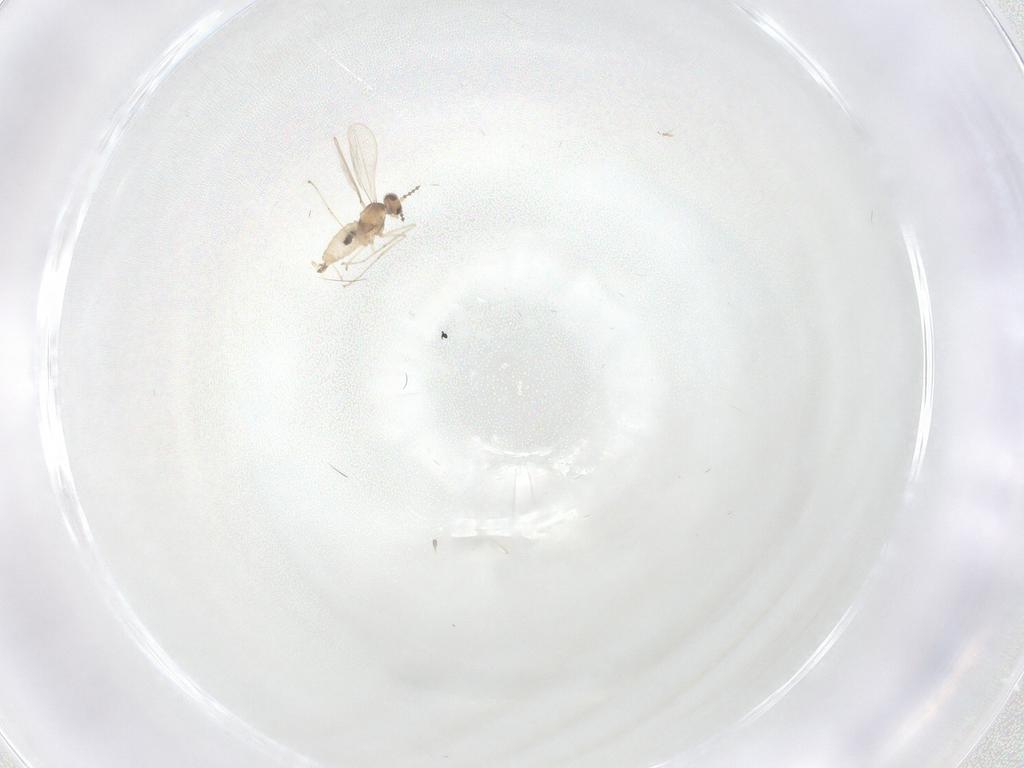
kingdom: Animalia
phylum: Arthropoda
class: Insecta
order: Diptera
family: Cecidomyiidae
